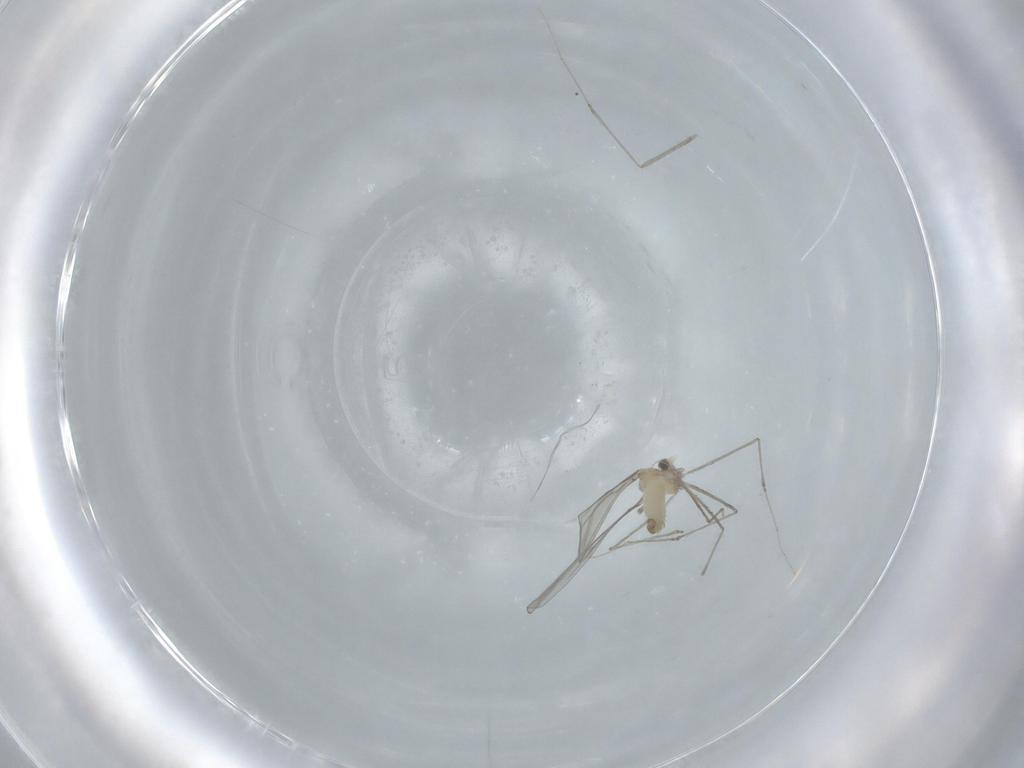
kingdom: Animalia
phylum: Arthropoda
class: Insecta
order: Diptera
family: Cecidomyiidae
